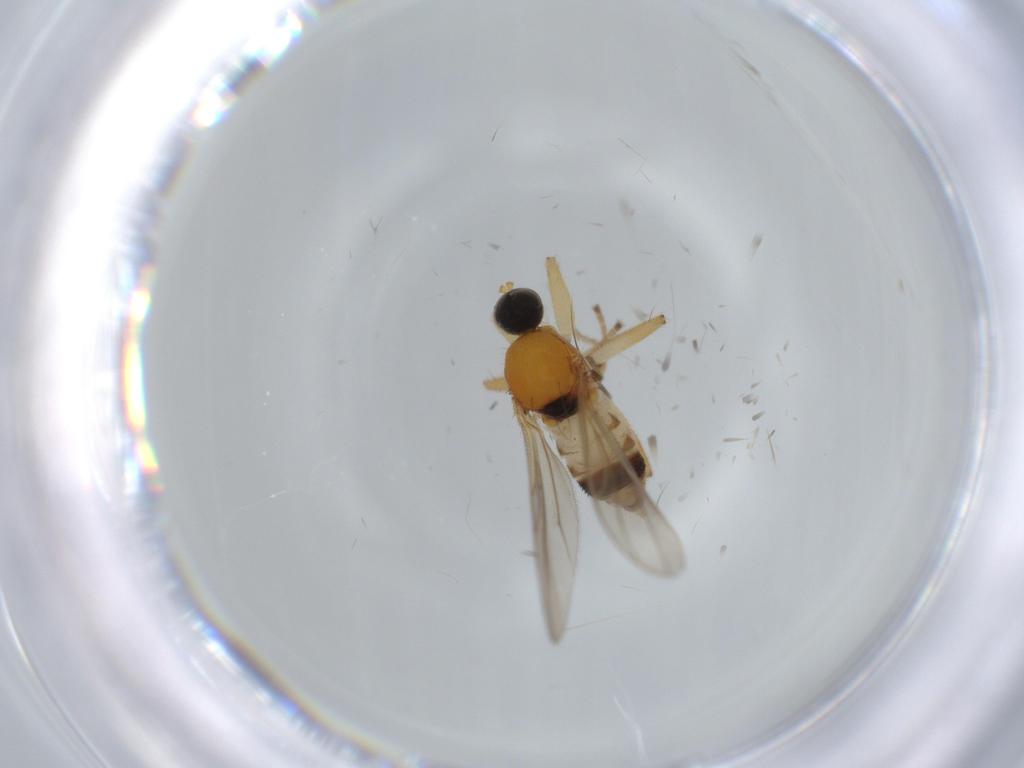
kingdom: Animalia
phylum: Arthropoda
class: Insecta
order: Diptera
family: Hybotidae
